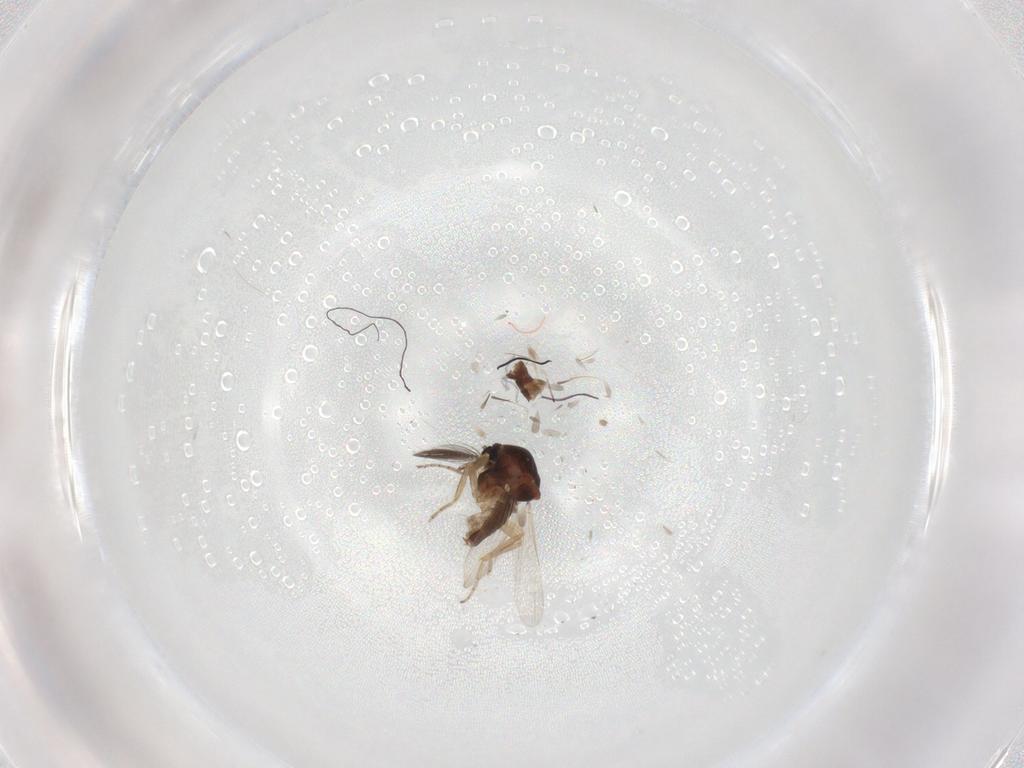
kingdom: Animalia
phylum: Arthropoda
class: Insecta
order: Diptera
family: Ceratopogonidae
